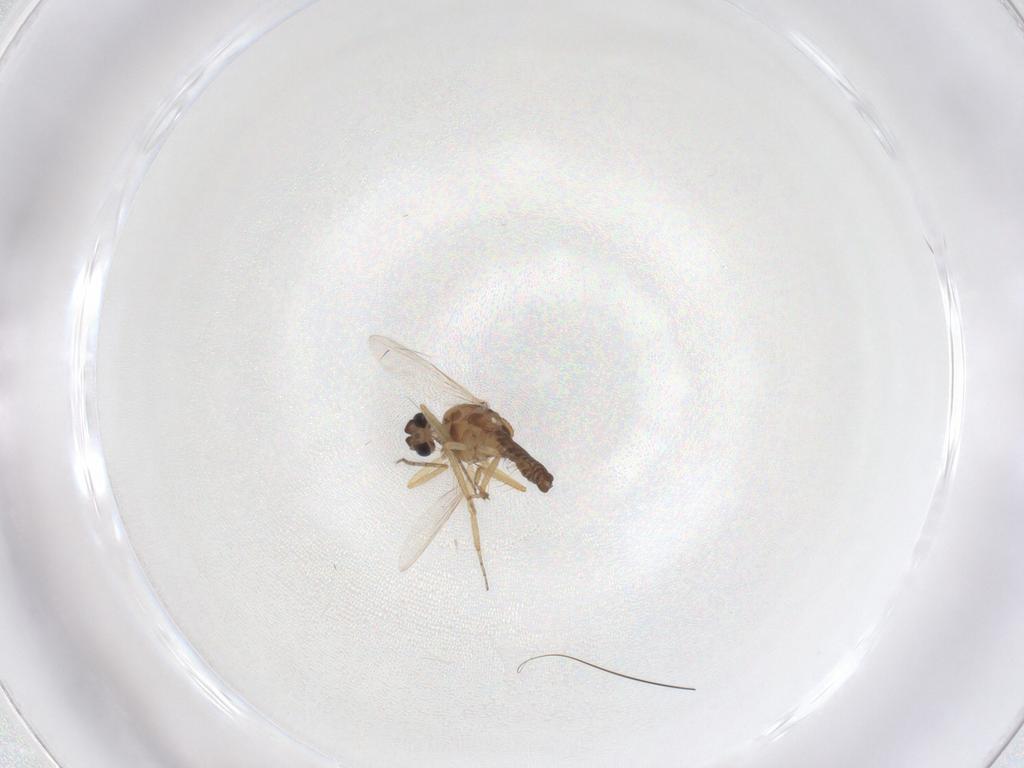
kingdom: Animalia
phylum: Arthropoda
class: Insecta
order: Diptera
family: Ceratopogonidae
